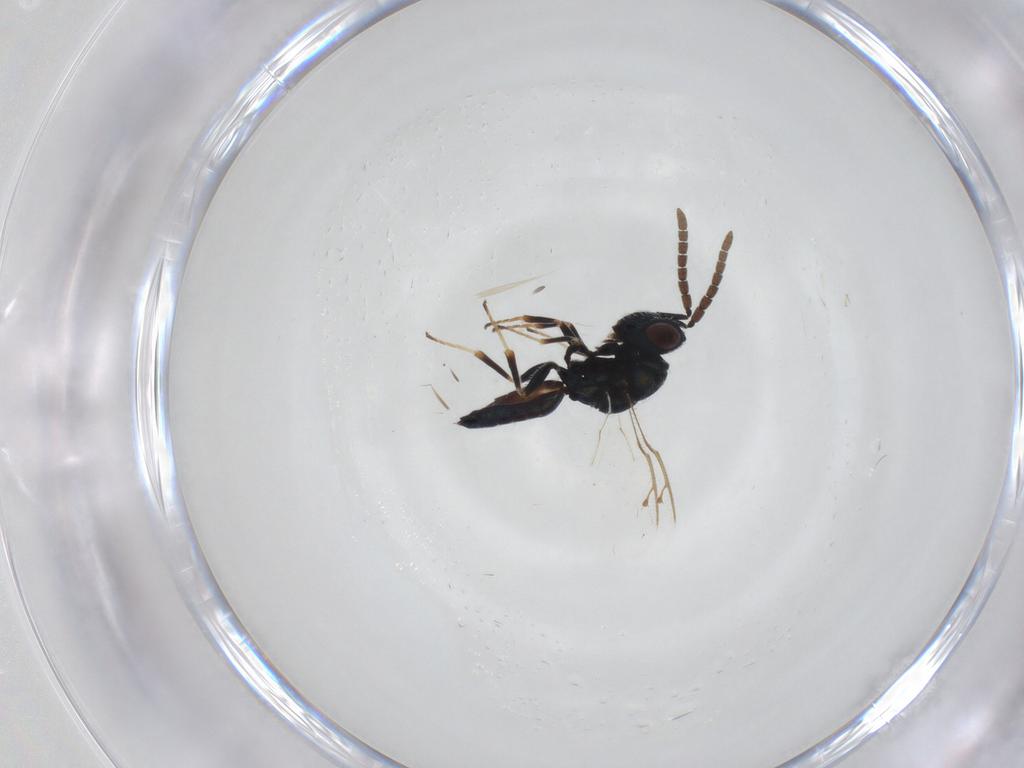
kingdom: Animalia
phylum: Arthropoda
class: Insecta
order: Hymenoptera
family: Pteromalidae
